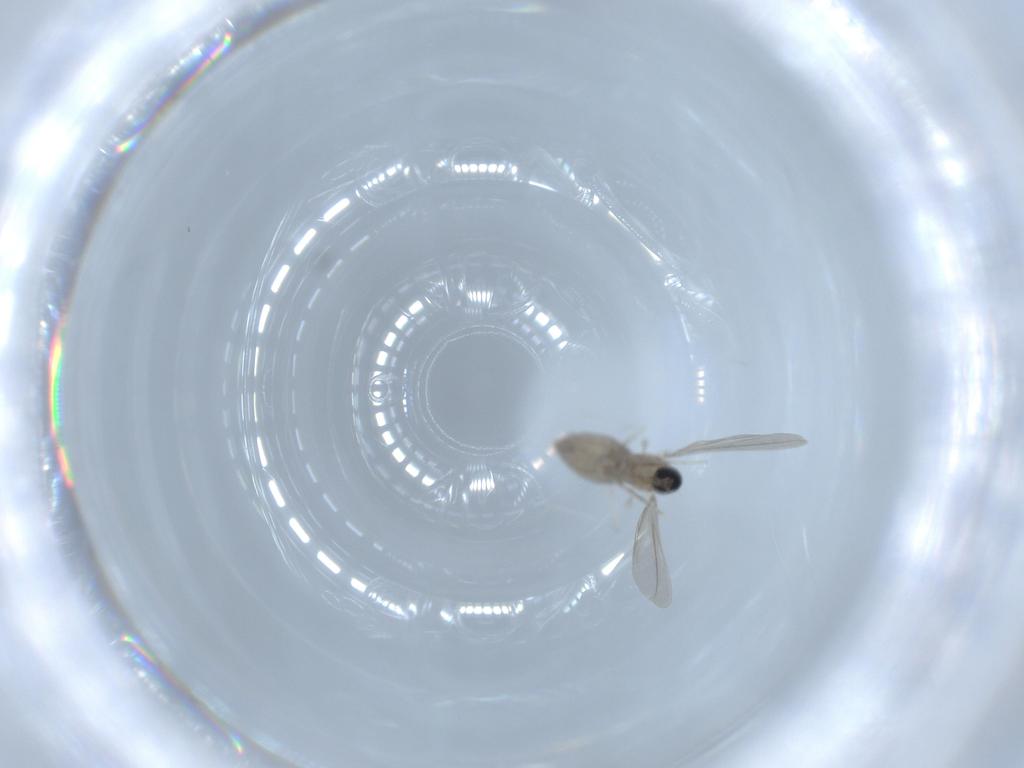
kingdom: Animalia
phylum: Arthropoda
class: Insecta
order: Diptera
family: Cecidomyiidae
